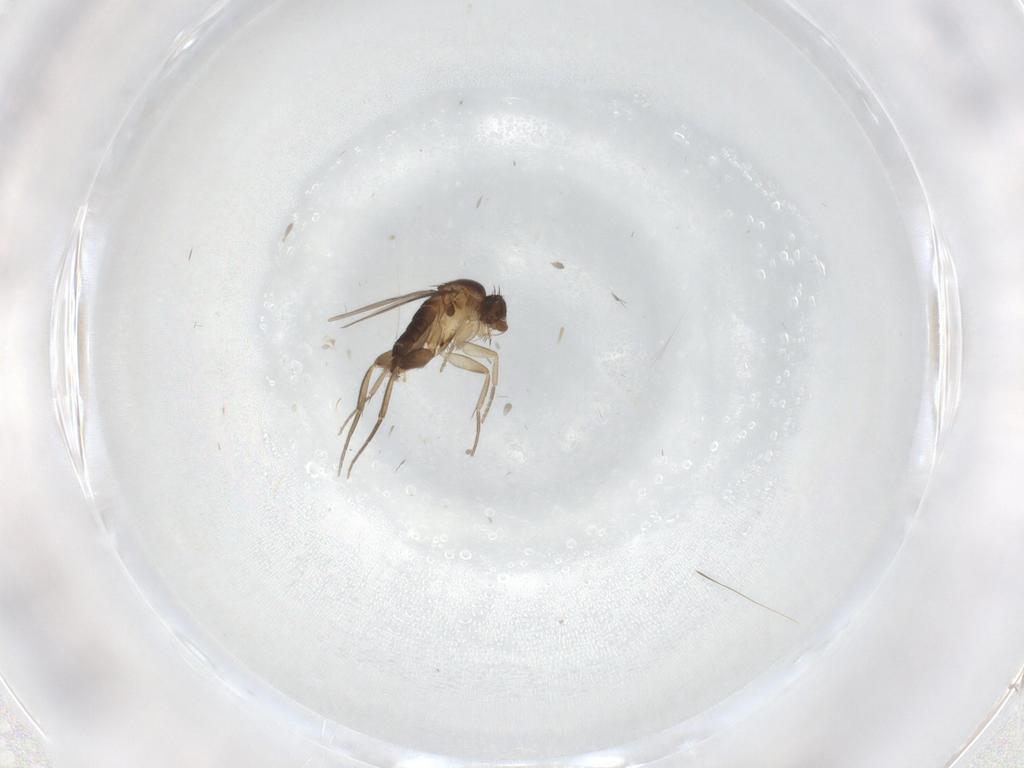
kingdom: Animalia
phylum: Arthropoda
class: Insecta
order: Diptera
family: Phoridae
